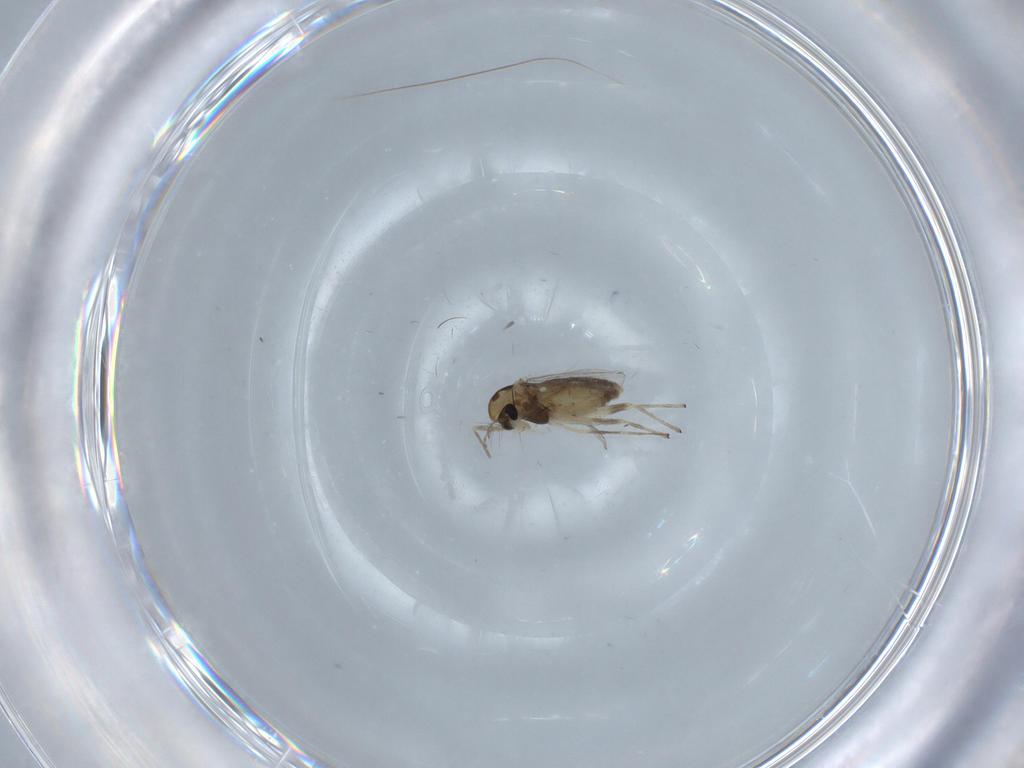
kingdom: Animalia
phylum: Arthropoda
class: Insecta
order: Diptera
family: Chironomidae
